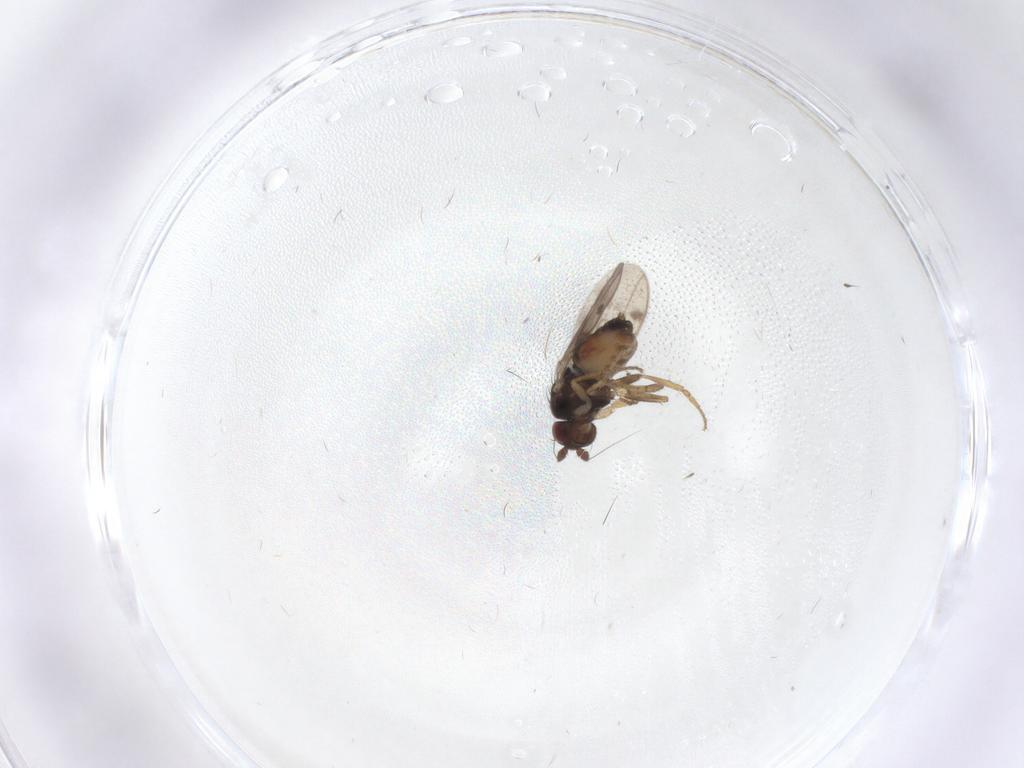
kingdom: Animalia
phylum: Arthropoda
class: Insecta
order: Diptera
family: Sphaeroceridae
